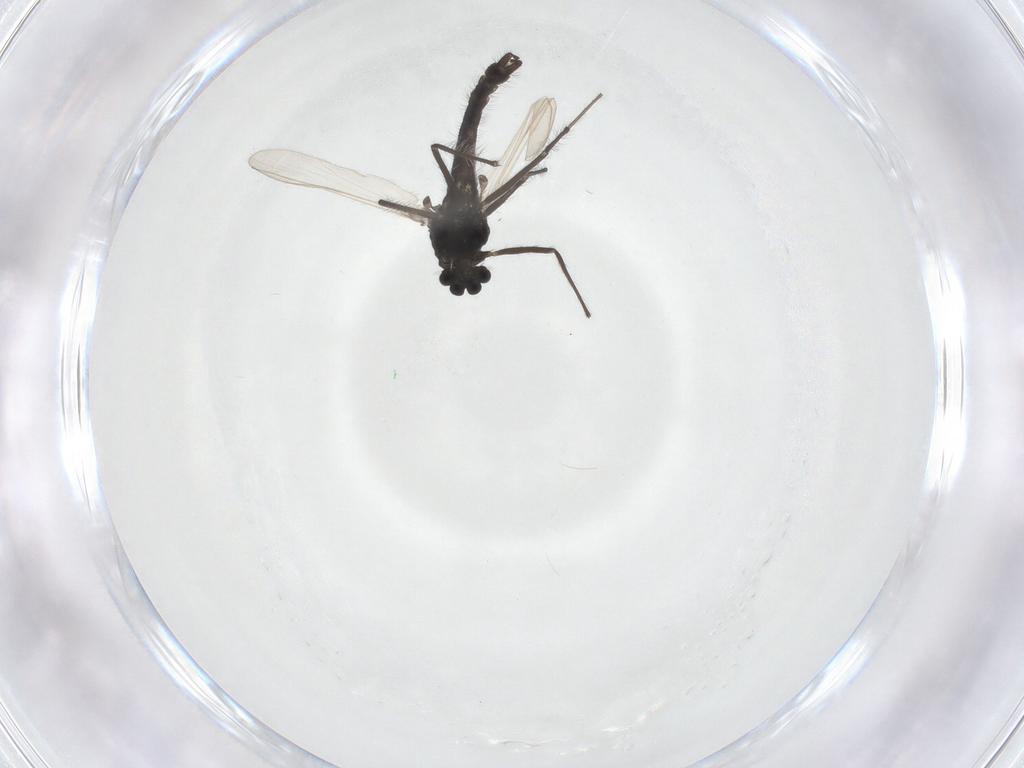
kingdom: Animalia
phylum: Arthropoda
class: Insecta
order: Diptera
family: Chironomidae
